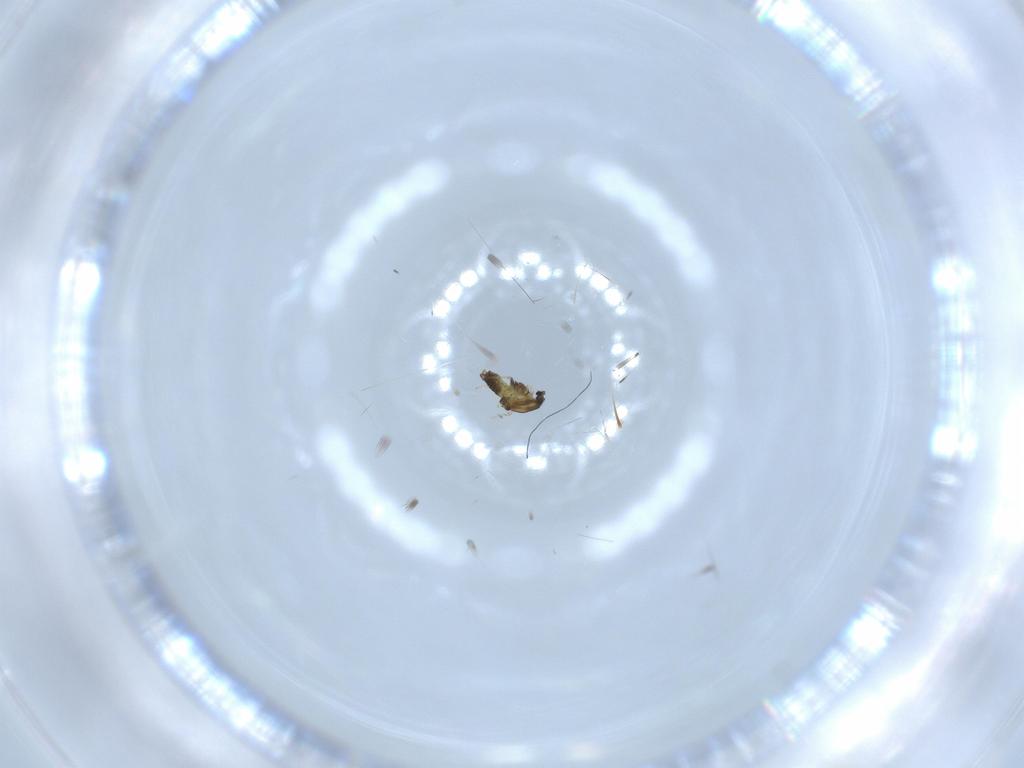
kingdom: Animalia
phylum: Arthropoda
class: Insecta
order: Diptera
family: Chironomidae
